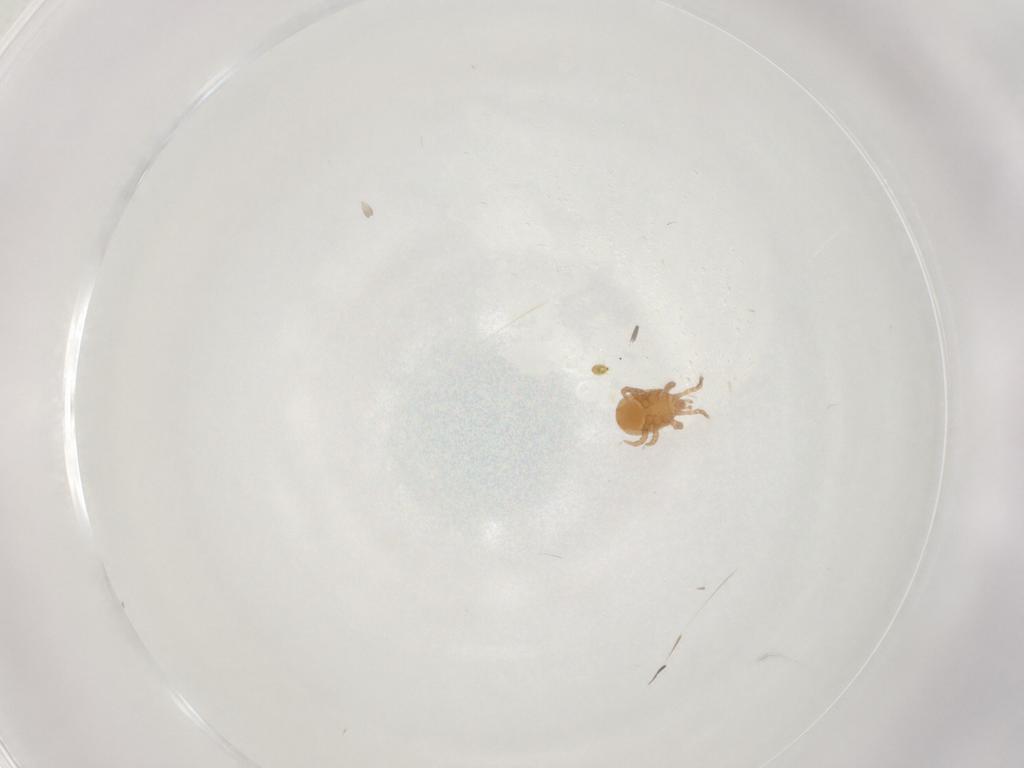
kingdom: Animalia
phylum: Arthropoda
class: Arachnida
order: Mesostigmata
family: Blattisociidae
